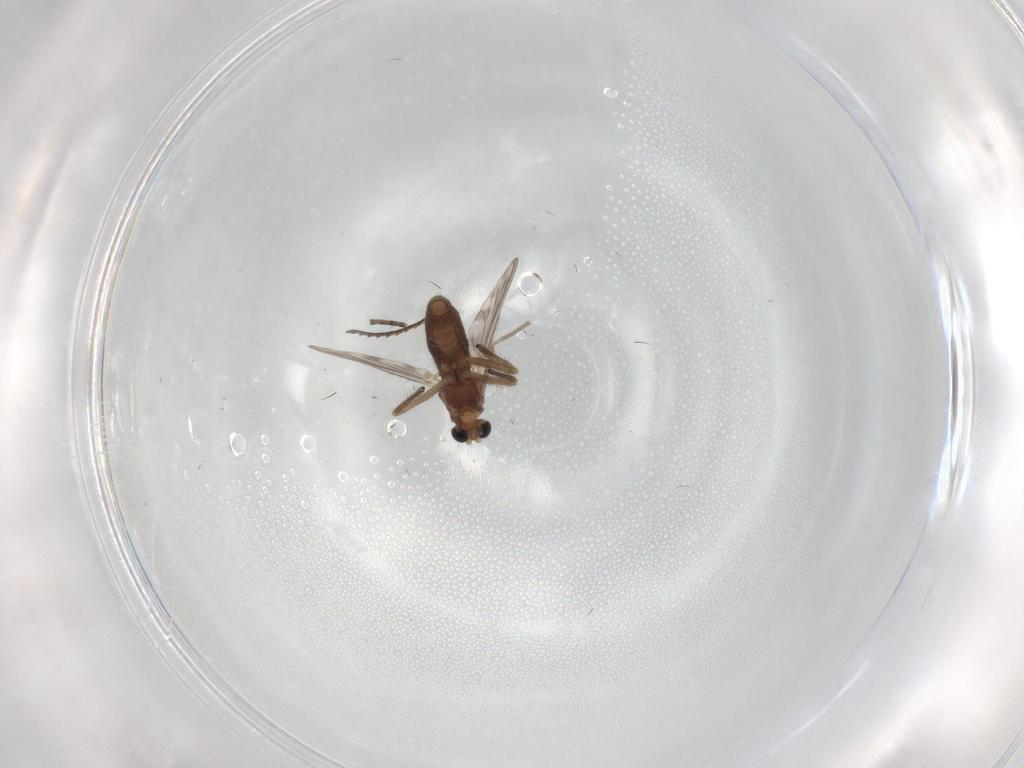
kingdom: Animalia
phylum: Arthropoda
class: Insecta
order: Diptera
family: Chironomidae
